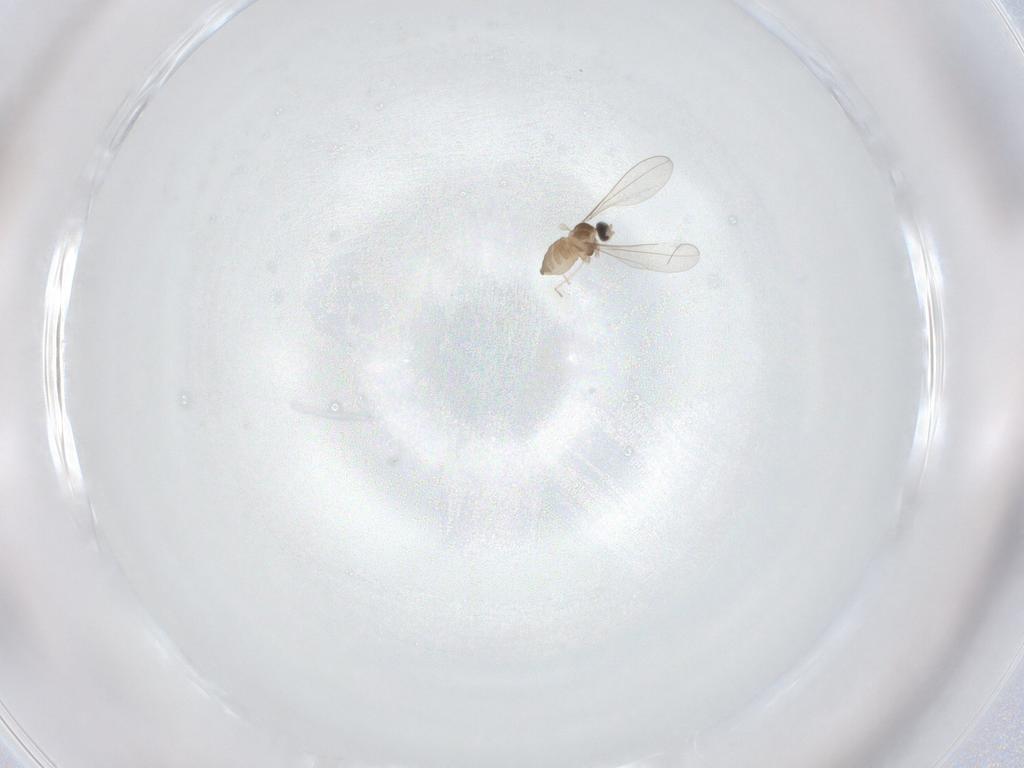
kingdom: Animalia
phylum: Arthropoda
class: Insecta
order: Diptera
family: Cecidomyiidae
